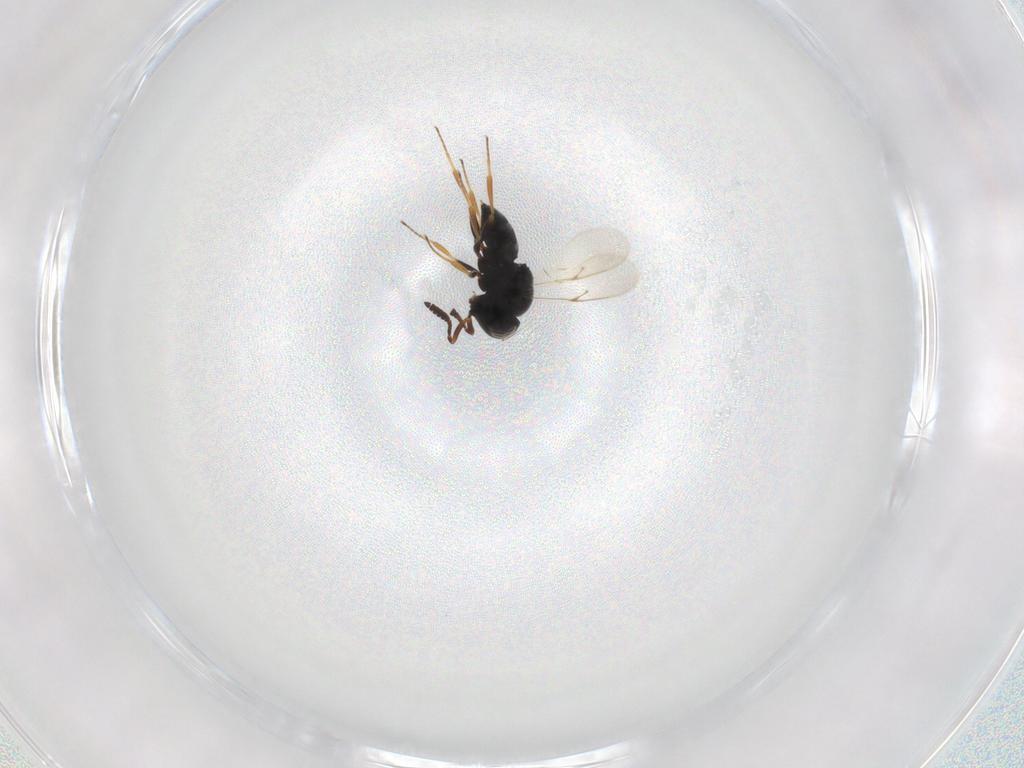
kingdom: Animalia
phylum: Arthropoda
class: Insecta
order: Hymenoptera
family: Scelionidae
